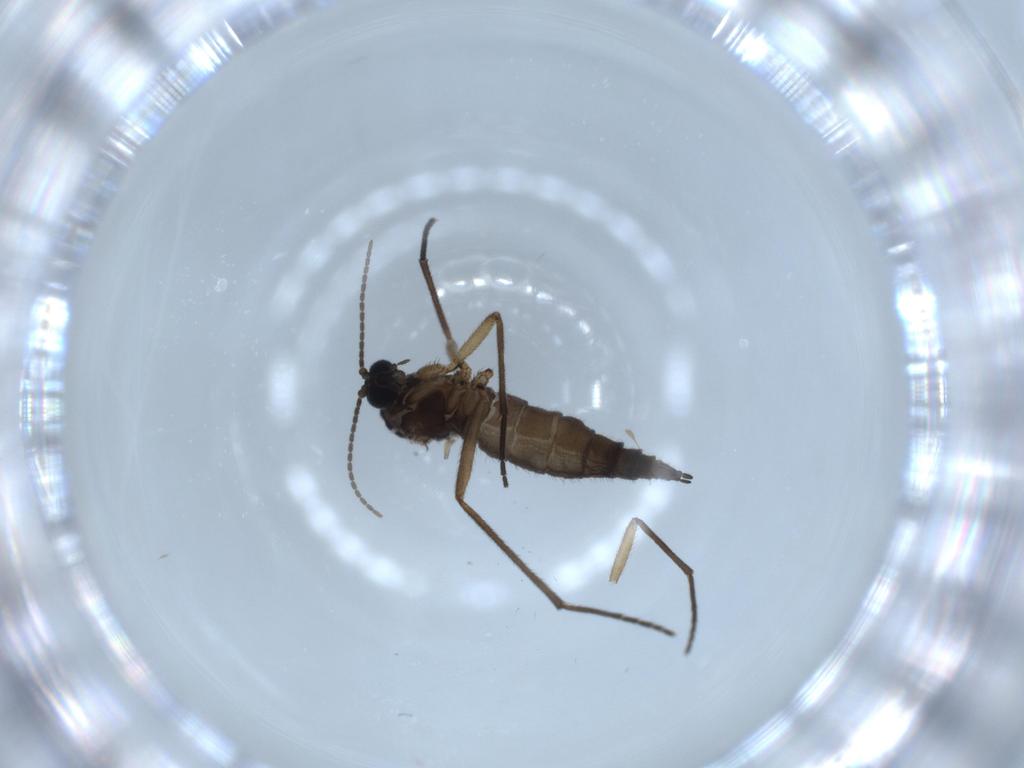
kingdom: Animalia
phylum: Arthropoda
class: Insecta
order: Diptera
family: Sciaridae
